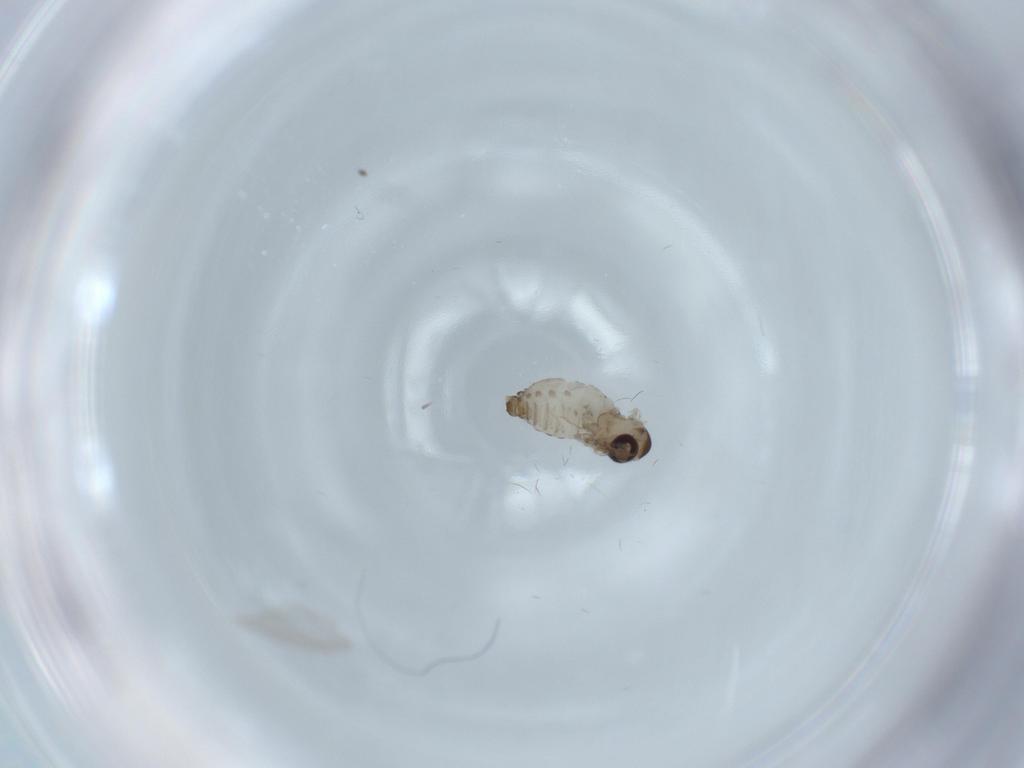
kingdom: Animalia
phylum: Arthropoda
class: Insecta
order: Diptera
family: Psychodidae
